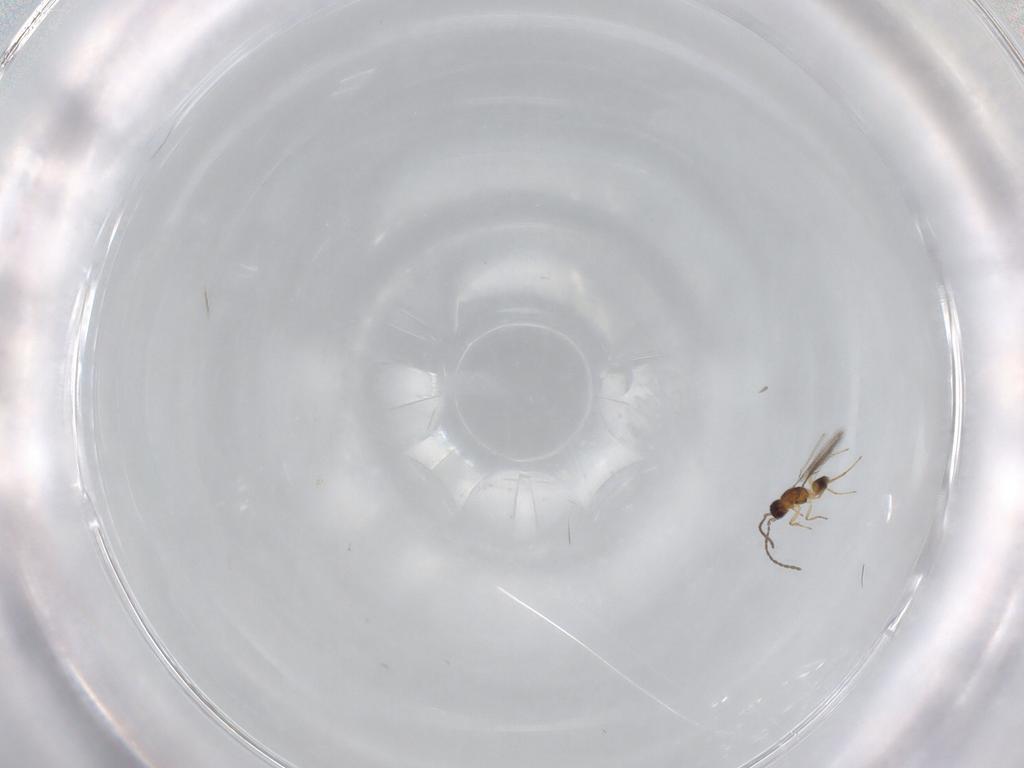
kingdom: Animalia
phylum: Arthropoda
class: Insecta
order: Hymenoptera
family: Mymaridae
